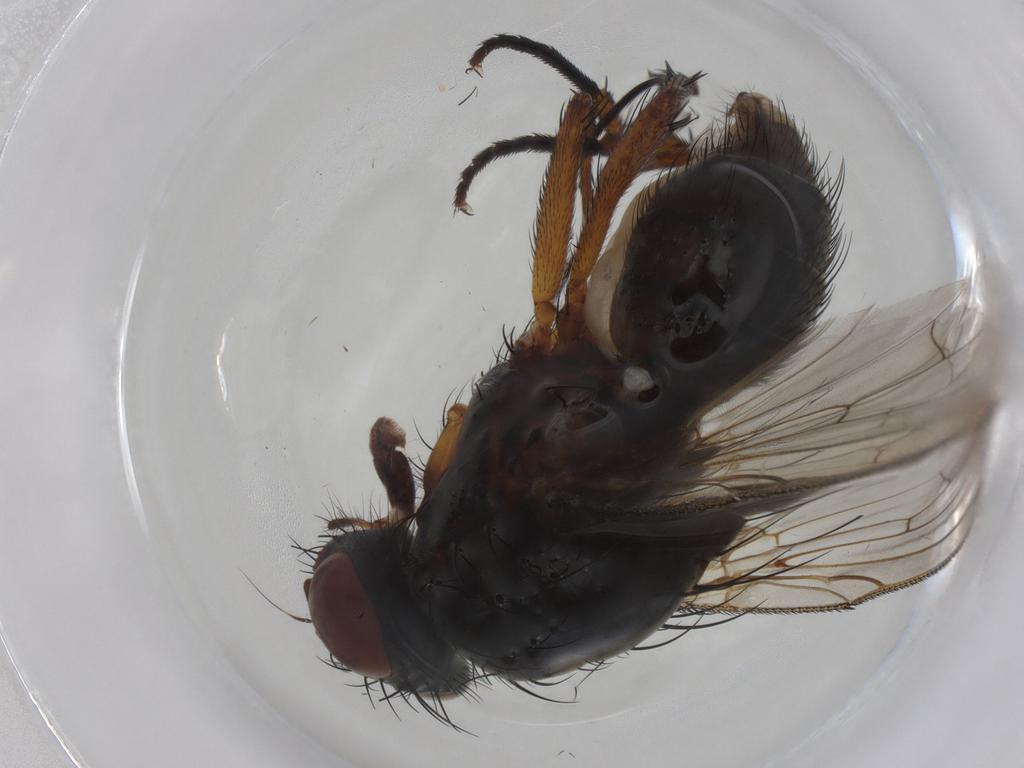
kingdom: Animalia
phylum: Arthropoda
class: Insecta
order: Diptera
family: Anthomyiidae
